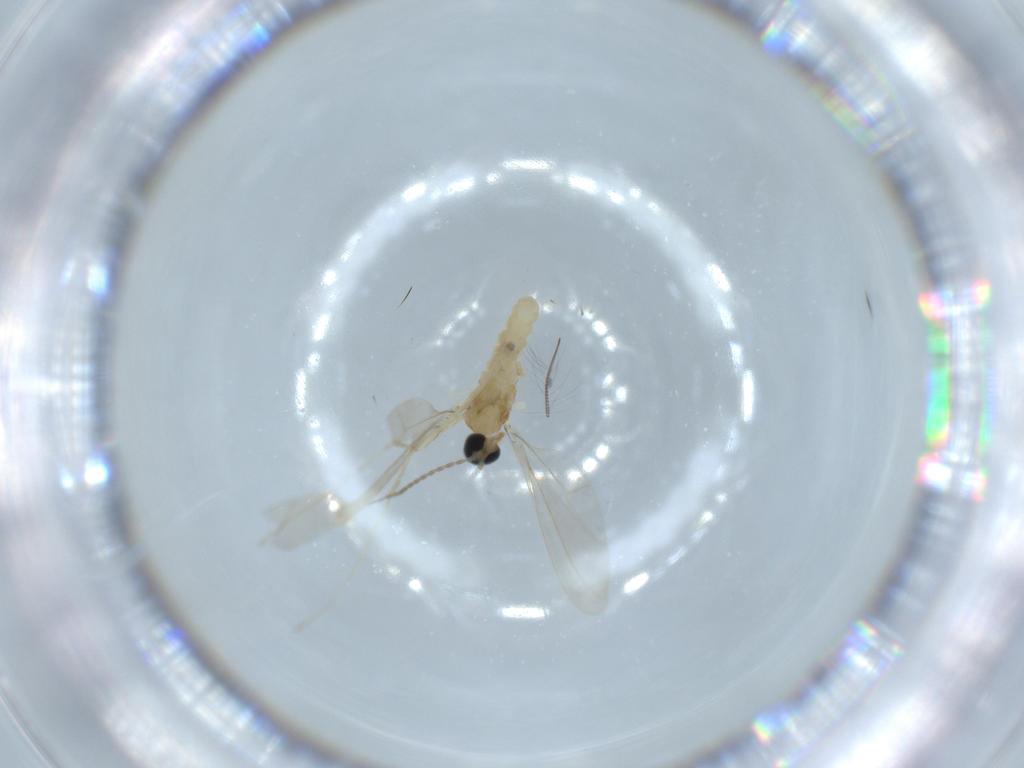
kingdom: Animalia
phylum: Arthropoda
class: Insecta
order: Diptera
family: Cecidomyiidae
